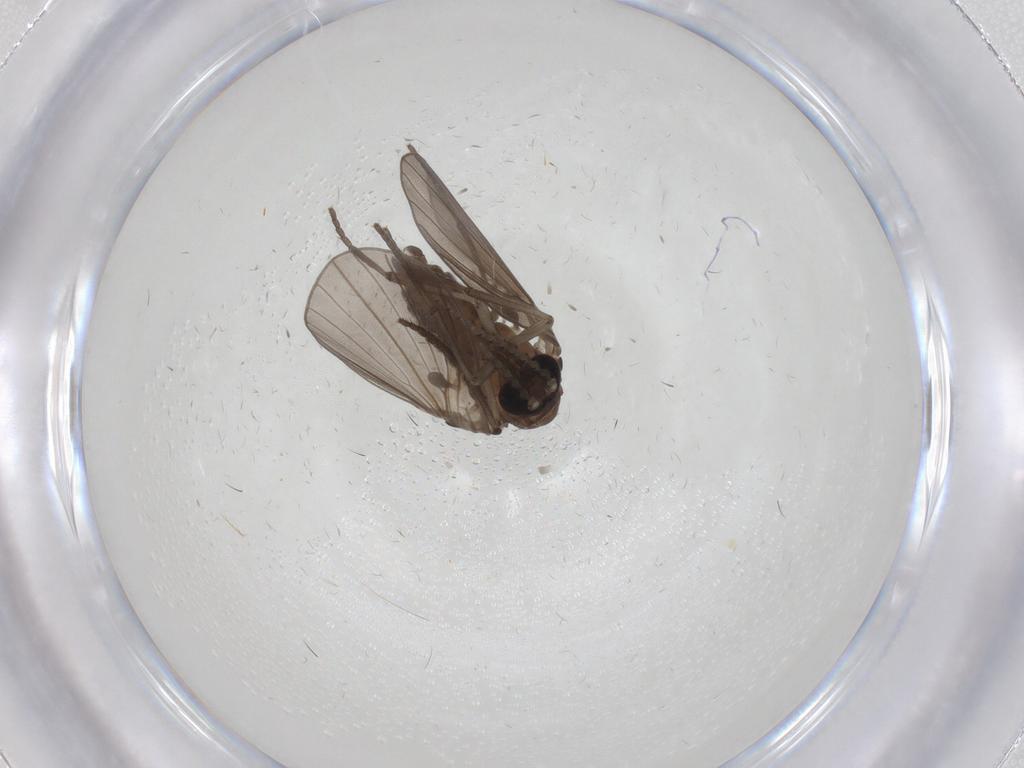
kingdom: Animalia
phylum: Arthropoda
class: Insecta
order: Diptera
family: Psychodidae
